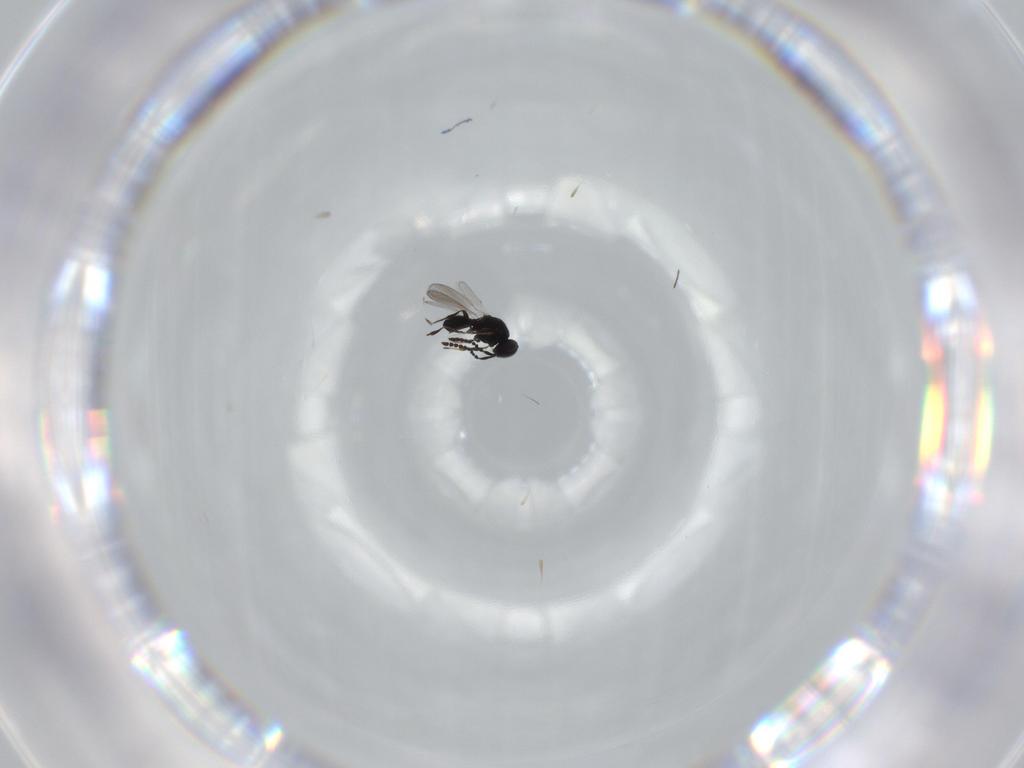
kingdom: Animalia
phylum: Arthropoda
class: Insecta
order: Hymenoptera
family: Platygastridae
